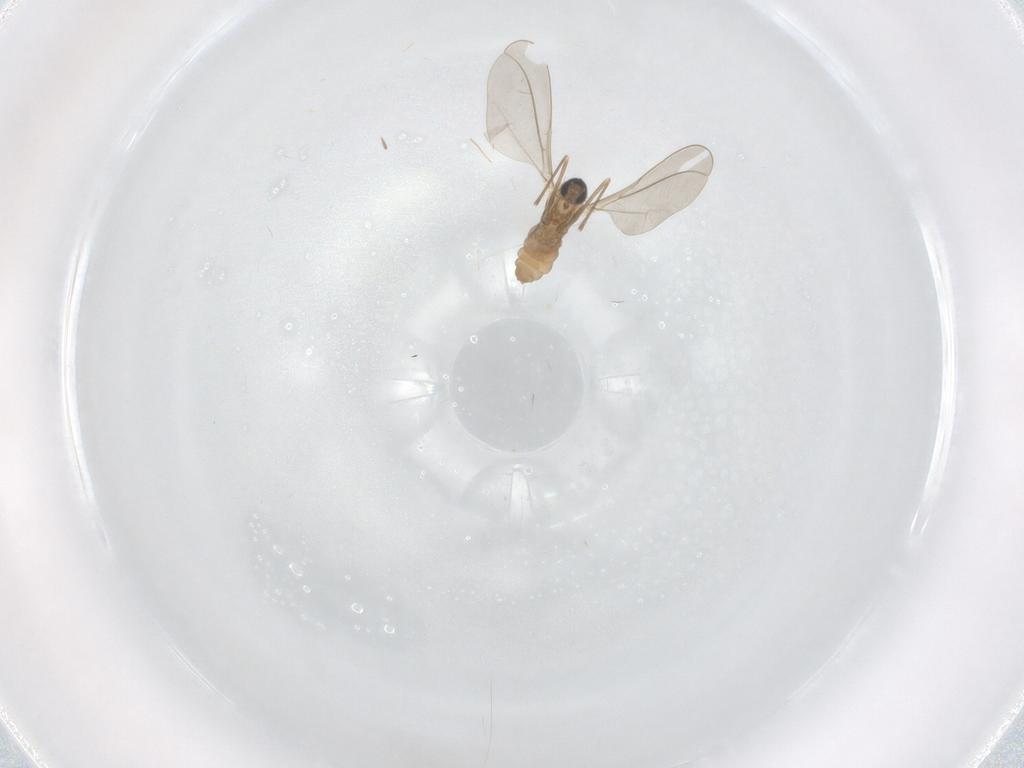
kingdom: Animalia
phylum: Arthropoda
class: Insecta
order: Diptera
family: Cecidomyiidae
